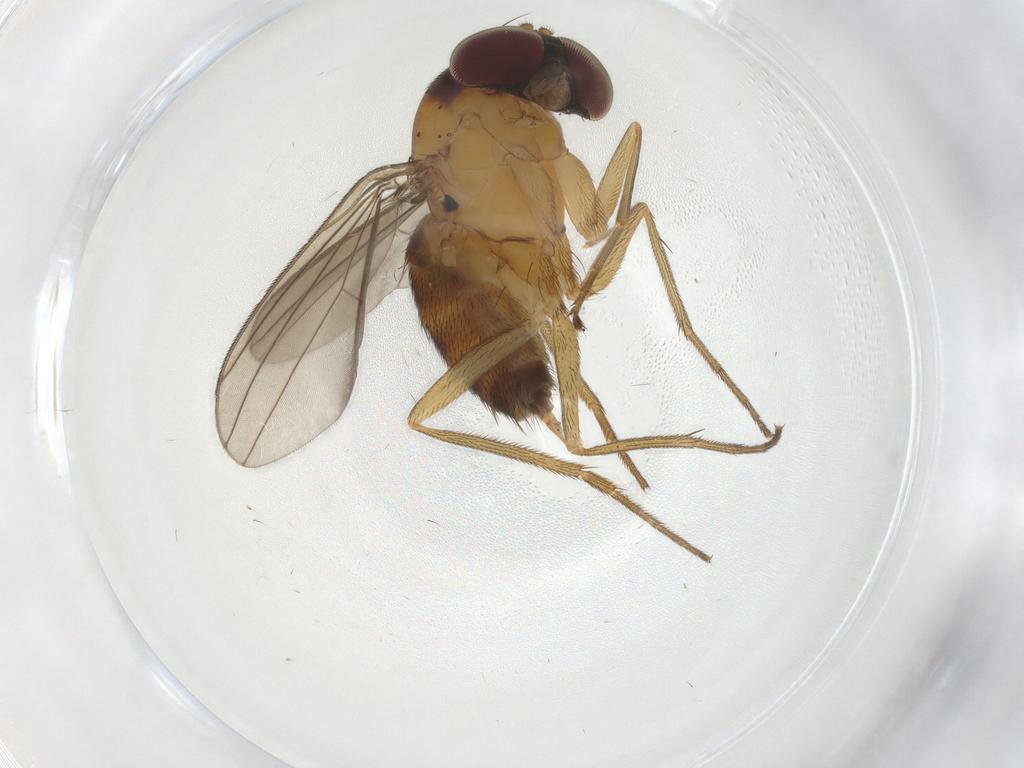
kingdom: Animalia
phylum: Arthropoda
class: Insecta
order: Diptera
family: Dolichopodidae
